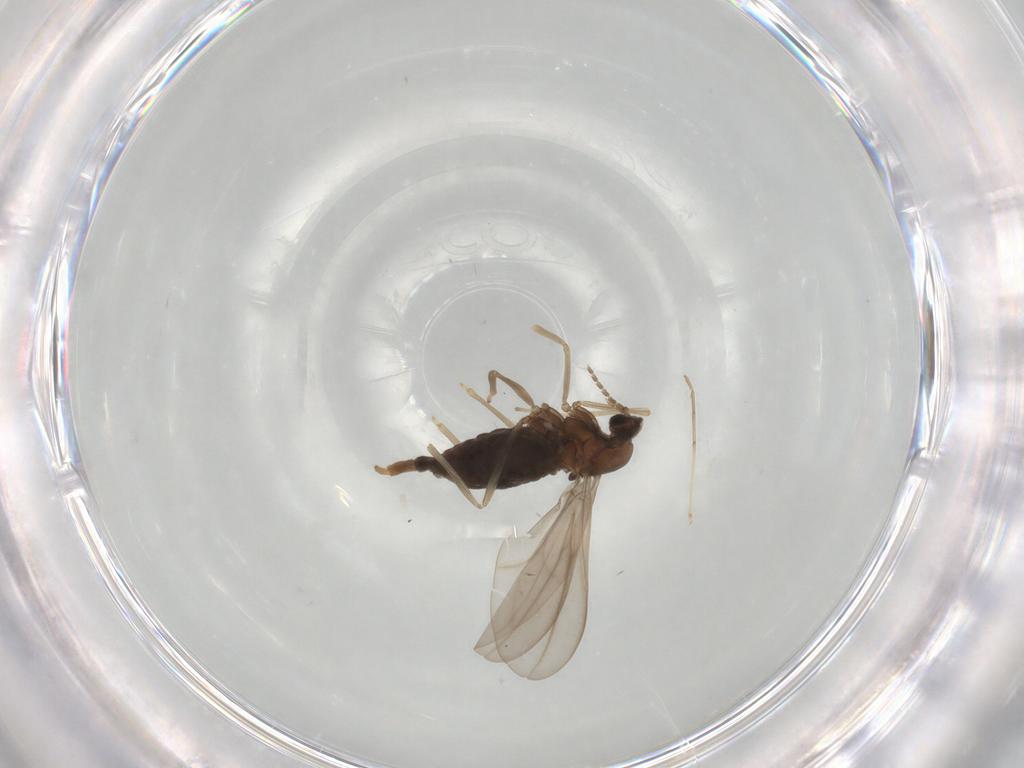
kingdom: Animalia
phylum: Arthropoda
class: Insecta
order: Diptera
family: Cecidomyiidae
